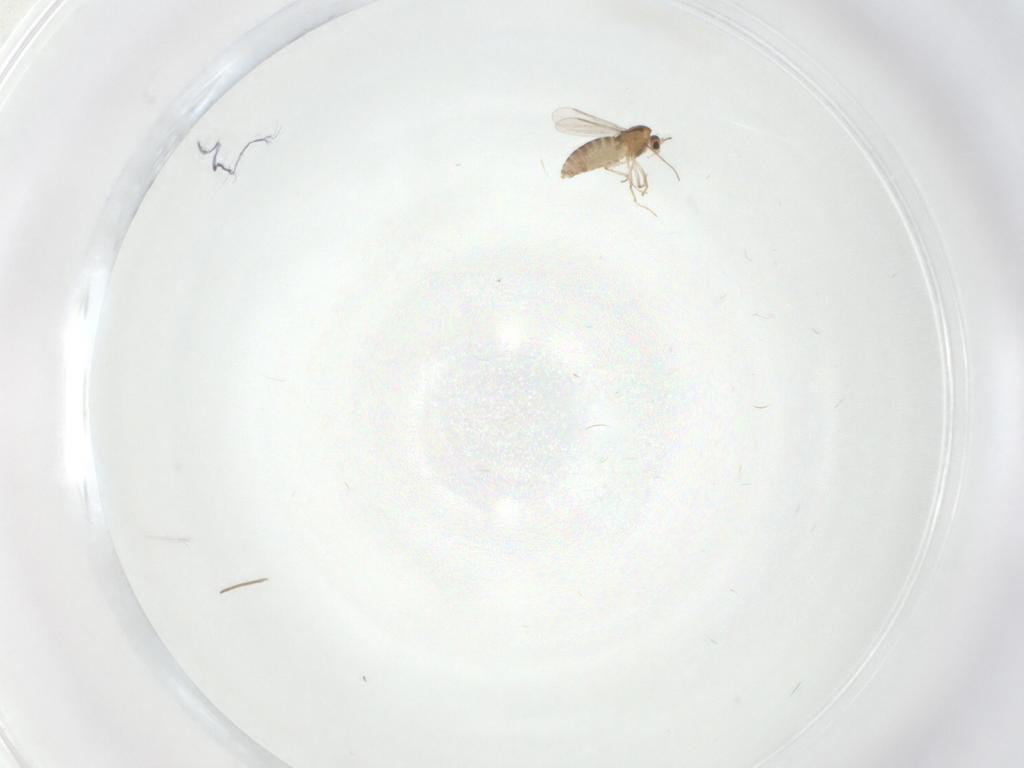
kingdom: Animalia
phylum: Arthropoda
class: Insecta
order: Diptera
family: Chironomidae
